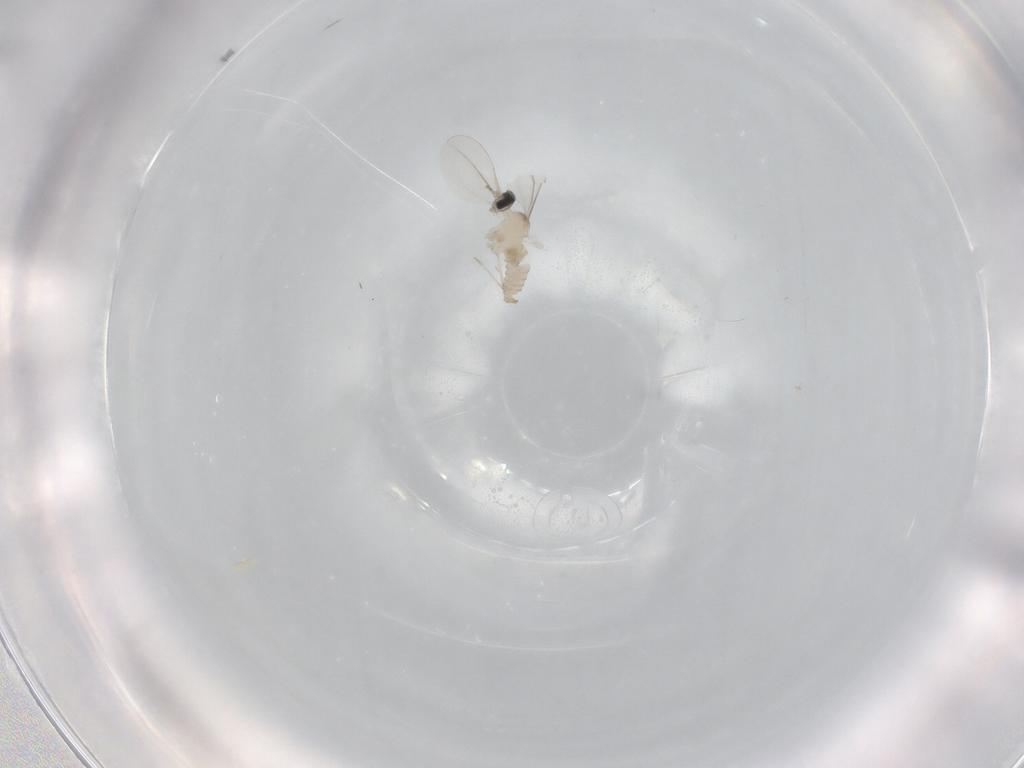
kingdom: Animalia
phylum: Arthropoda
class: Insecta
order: Diptera
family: Cecidomyiidae
